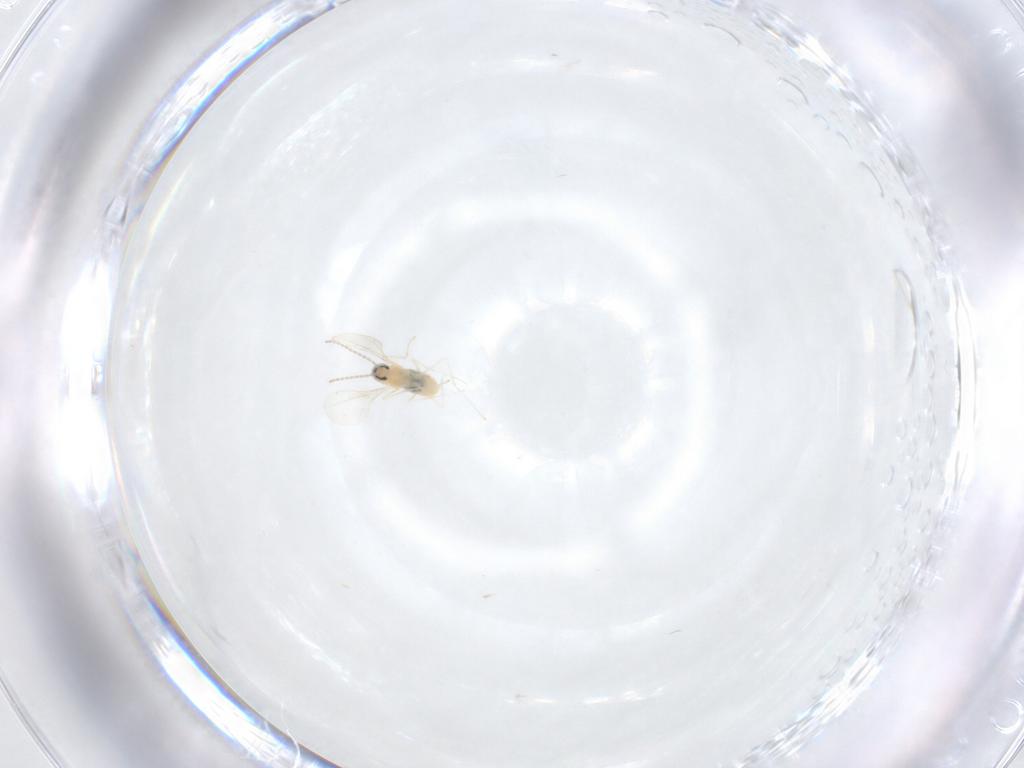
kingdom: Animalia
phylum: Arthropoda
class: Insecta
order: Diptera
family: Cecidomyiidae
